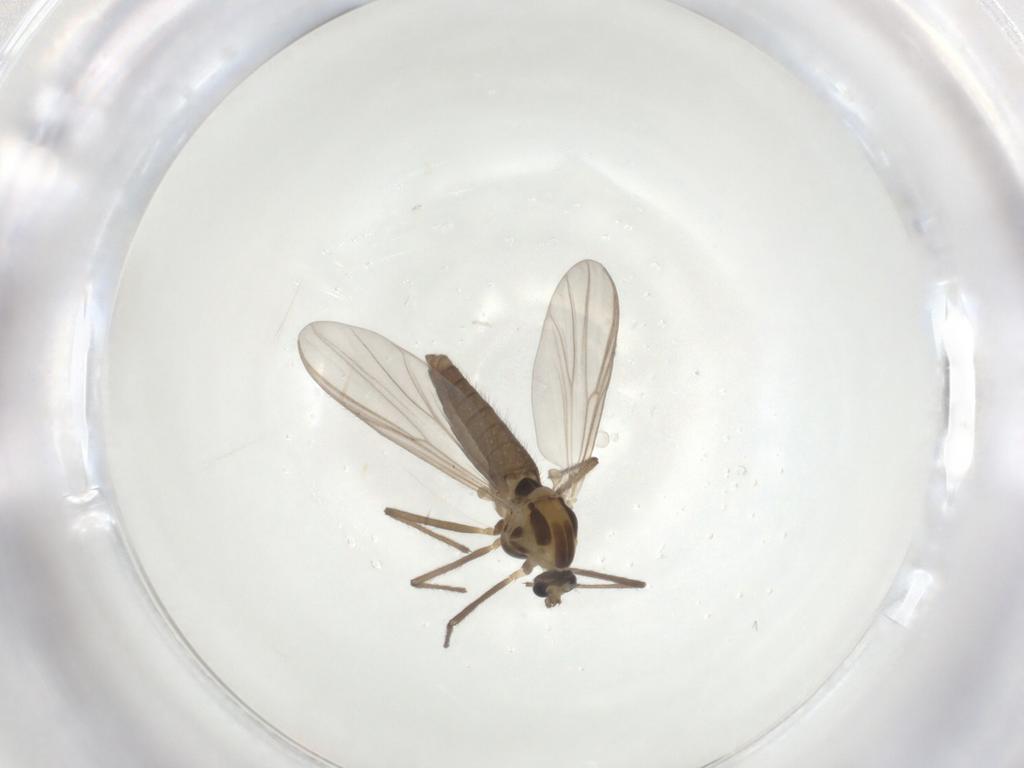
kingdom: Animalia
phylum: Arthropoda
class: Insecta
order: Diptera
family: Chironomidae
